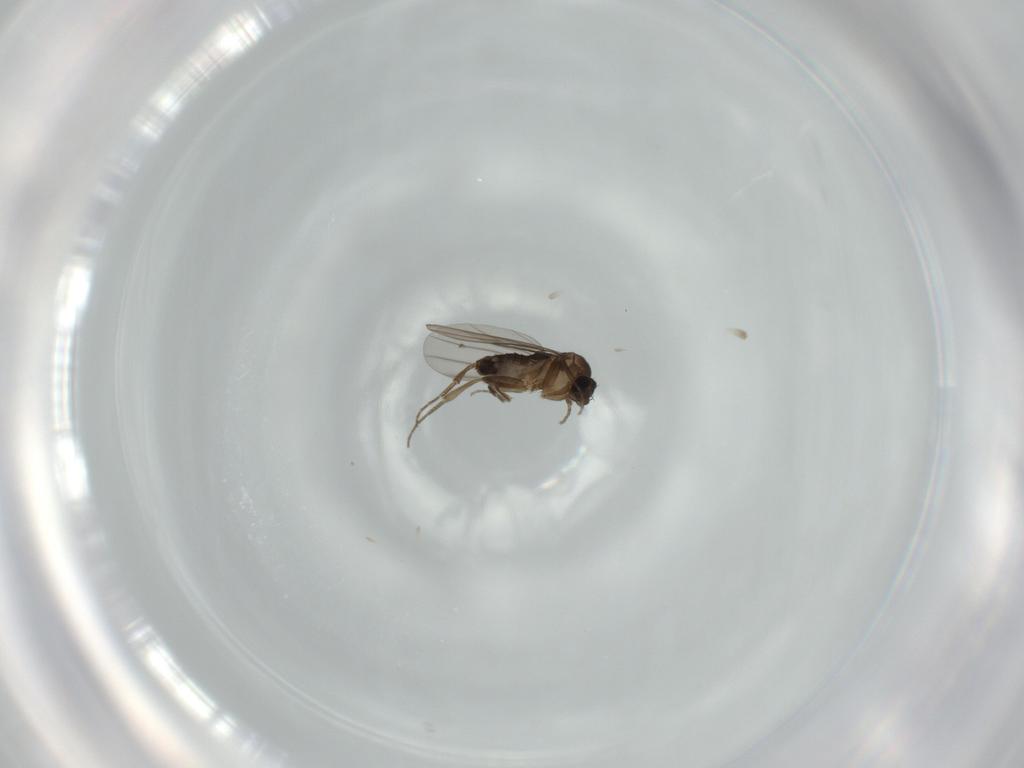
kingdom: Animalia
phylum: Arthropoda
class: Insecta
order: Diptera
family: Phoridae
